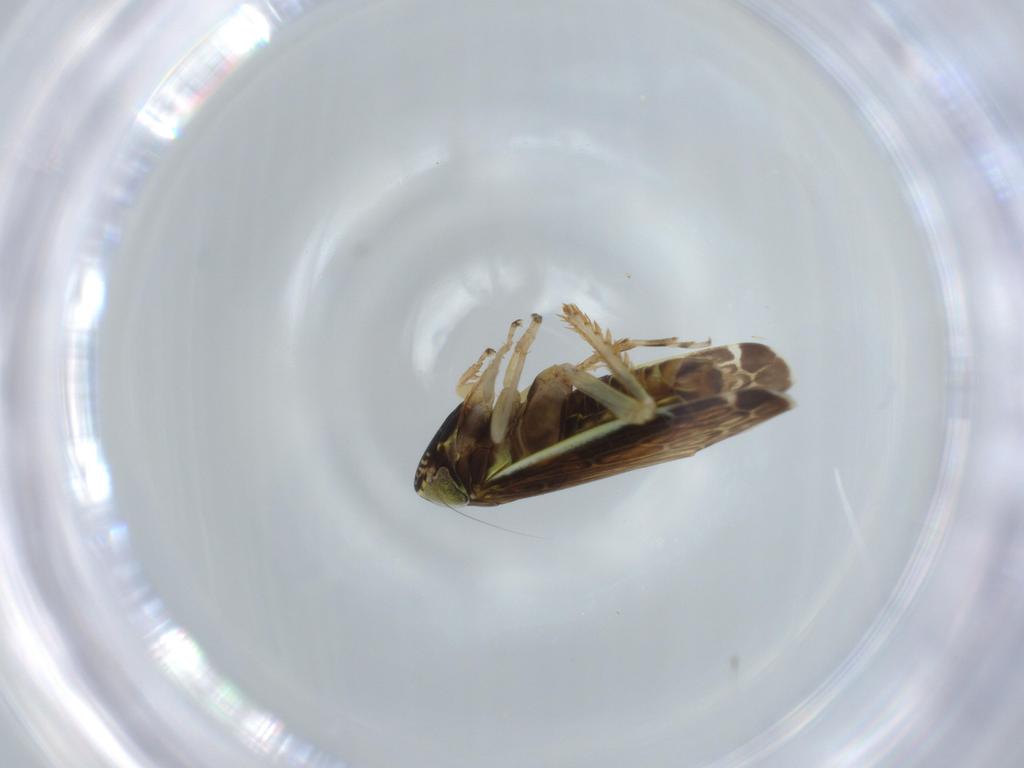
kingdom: Animalia
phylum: Arthropoda
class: Insecta
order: Hemiptera
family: Cicadellidae
